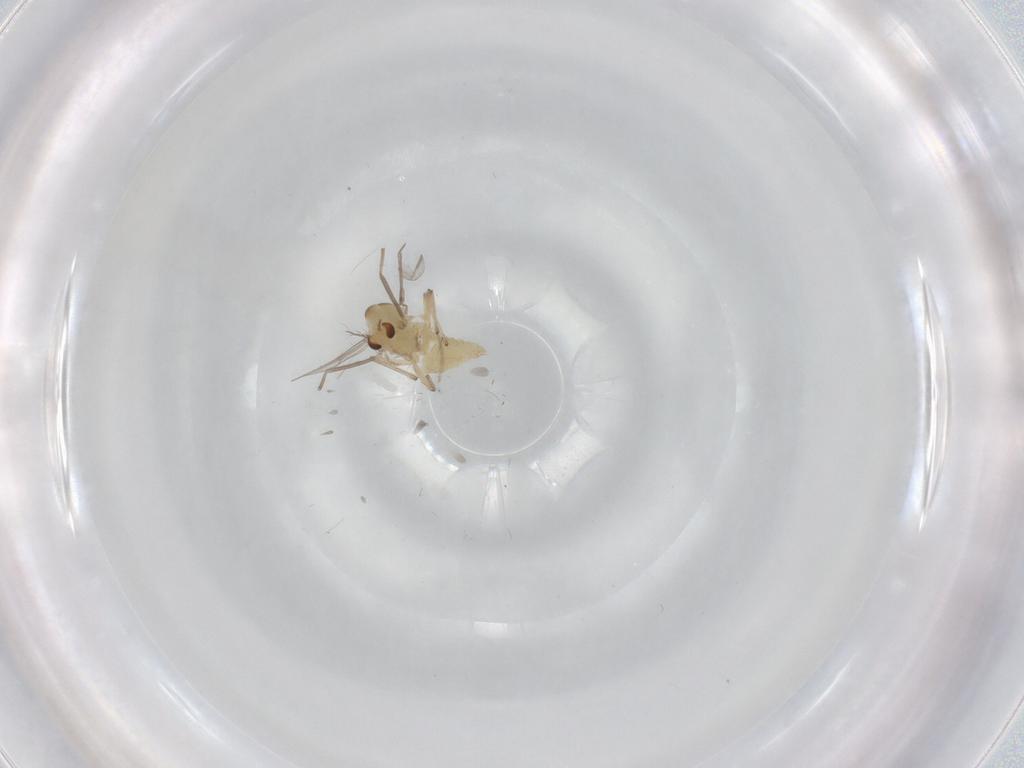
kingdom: Animalia
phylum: Arthropoda
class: Insecta
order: Diptera
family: Chironomidae
